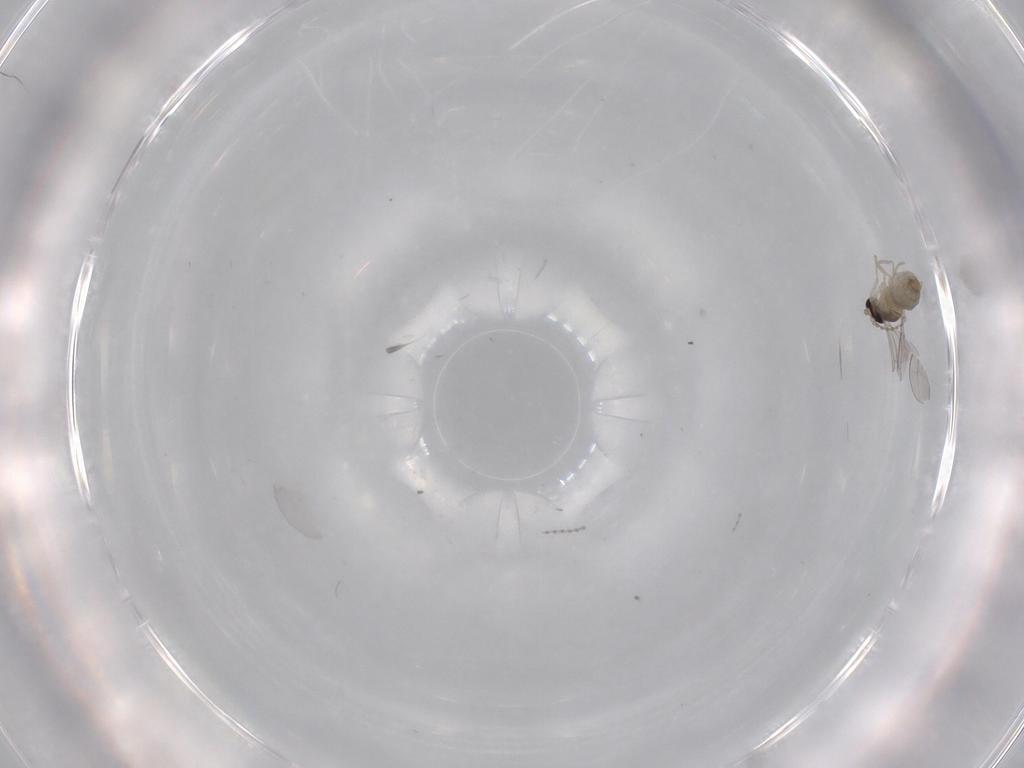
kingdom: Animalia
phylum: Arthropoda
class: Insecta
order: Diptera
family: Cecidomyiidae
